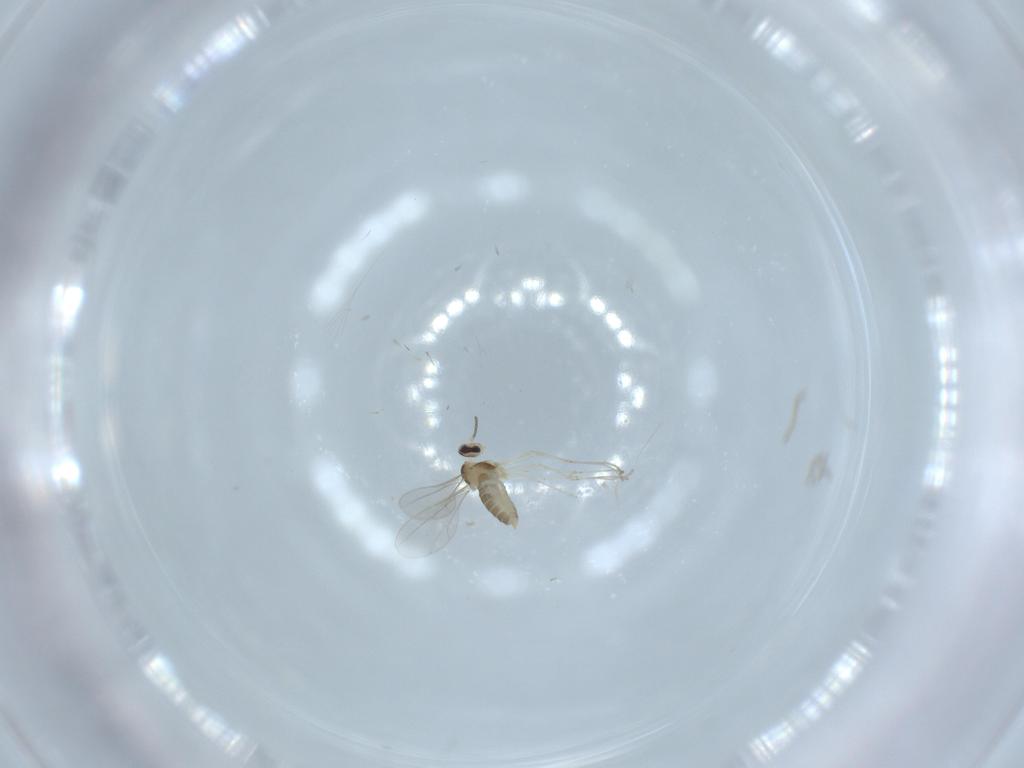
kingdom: Animalia
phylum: Arthropoda
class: Insecta
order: Diptera
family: Cecidomyiidae
